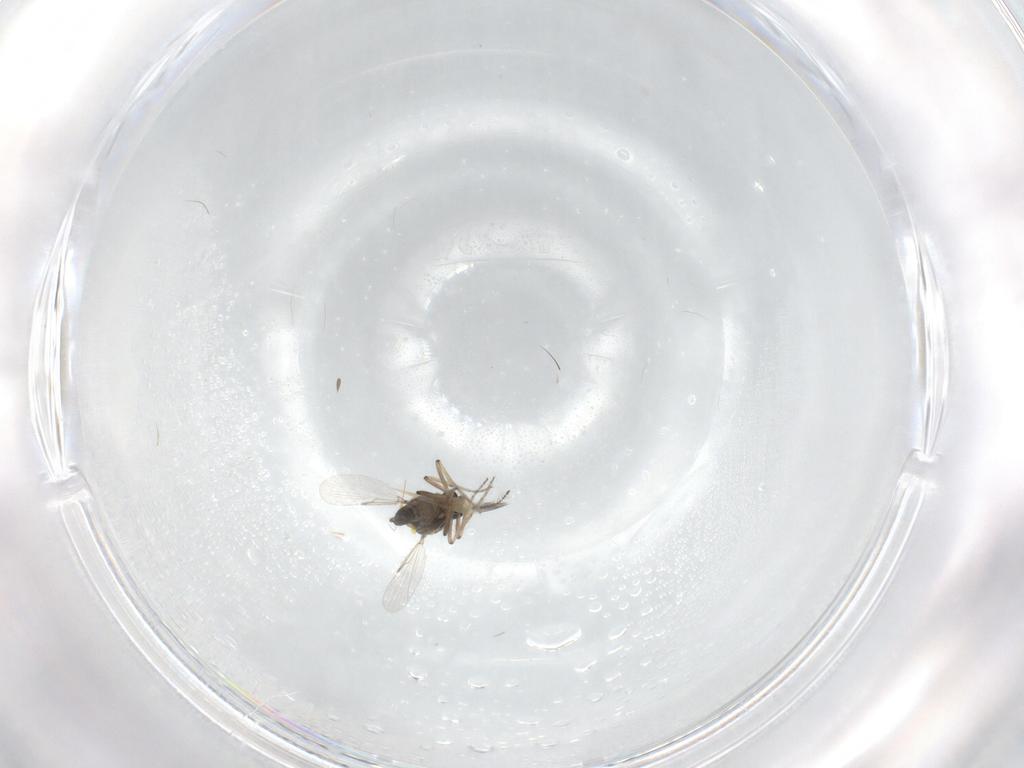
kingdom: Animalia
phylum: Arthropoda
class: Insecta
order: Diptera
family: Ceratopogonidae
